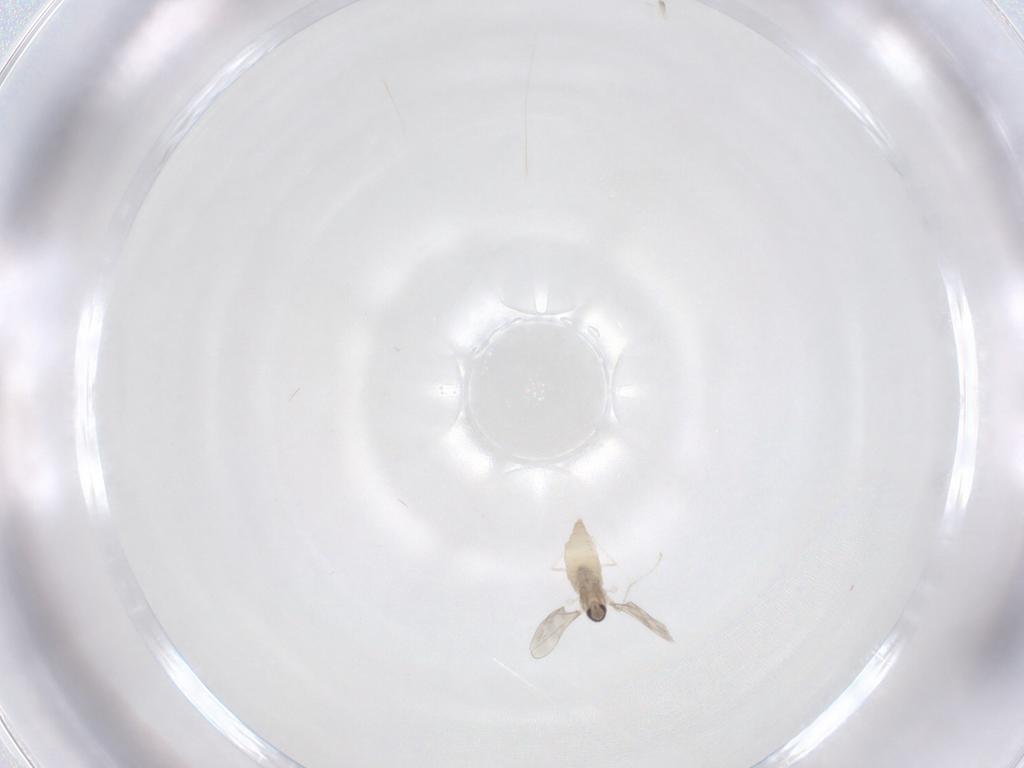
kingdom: Animalia
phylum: Arthropoda
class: Insecta
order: Diptera
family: Cecidomyiidae
